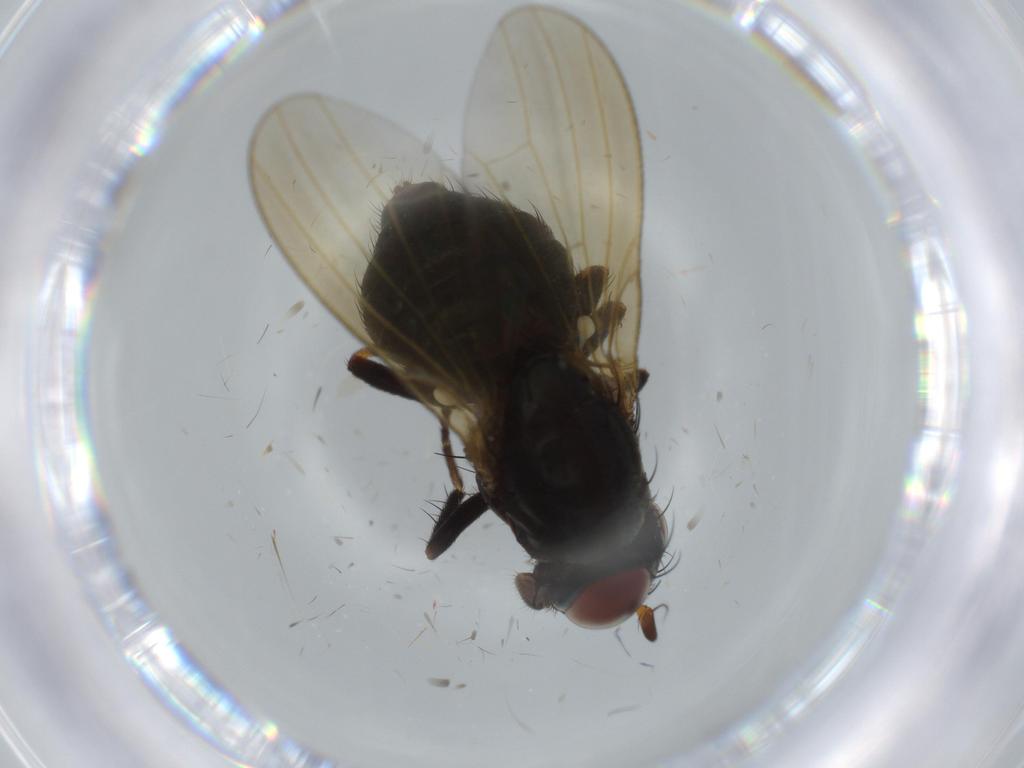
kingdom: Animalia
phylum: Arthropoda
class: Insecta
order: Diptera
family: Lauxaniidae
